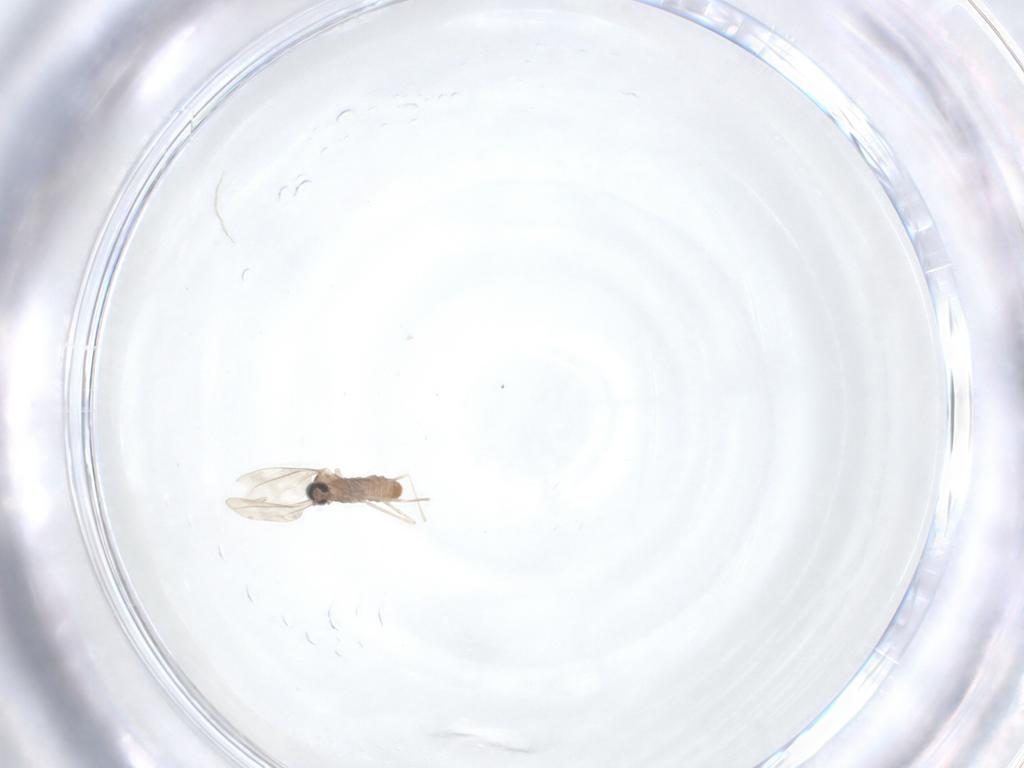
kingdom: Animalia
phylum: Arthropoda
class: Insecta
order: Diptera
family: Cecidomyiidae
